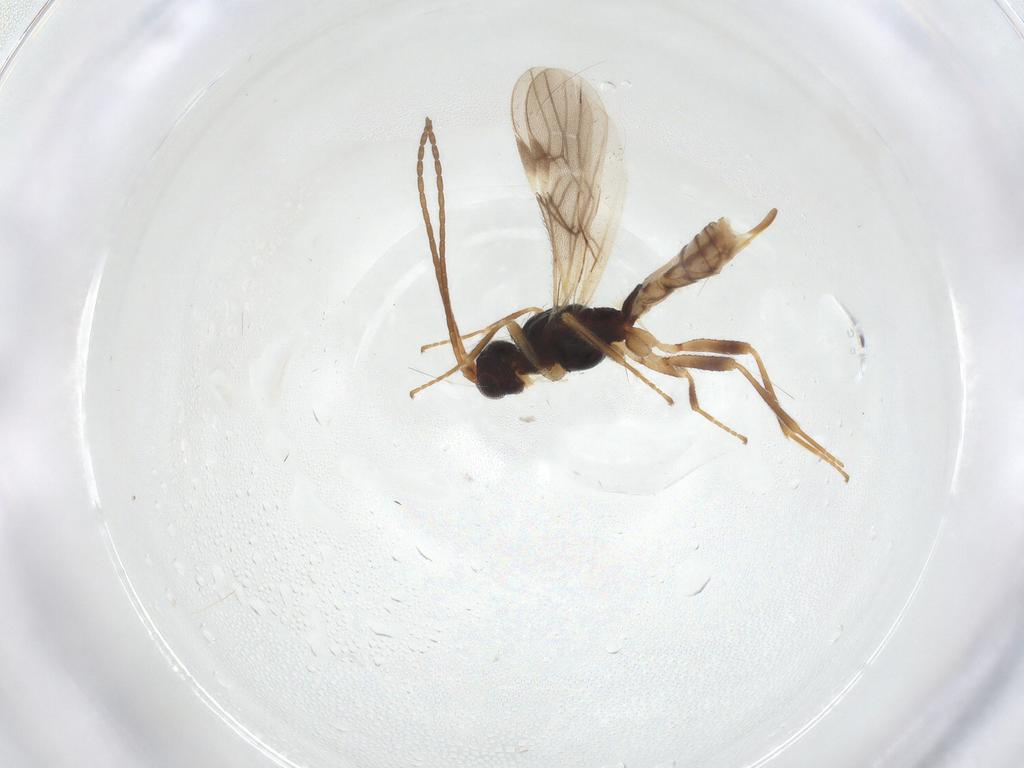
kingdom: Animalia
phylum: Arthropoda
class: Insecta
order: Hymenoptera
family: Braconidae
